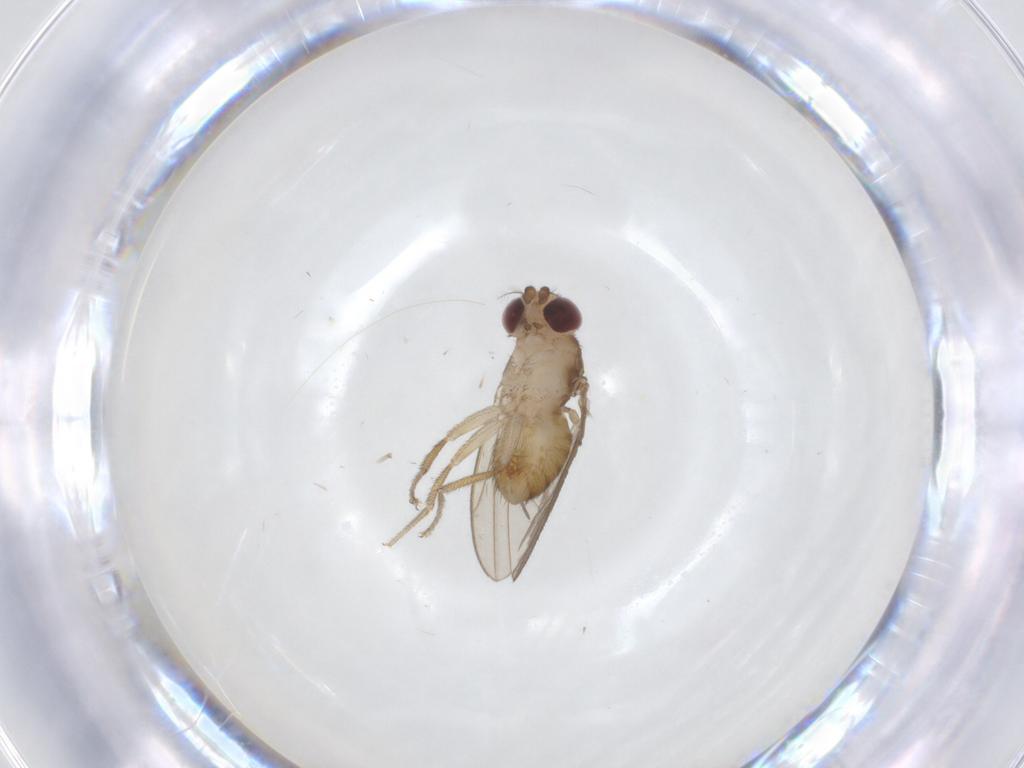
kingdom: Animalia
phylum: Arthropoda
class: Insecta
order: Diptera
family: Drosophilidae
